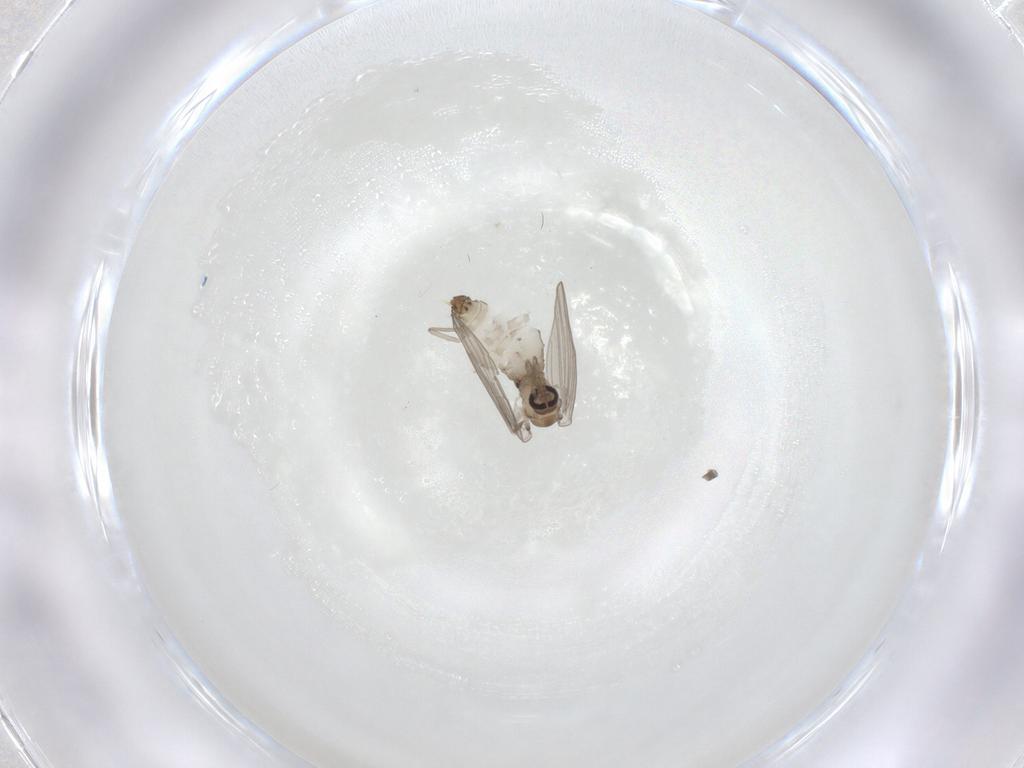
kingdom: Animalia
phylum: Arthropoda
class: Insecta
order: Diptera
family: Psychodidae
